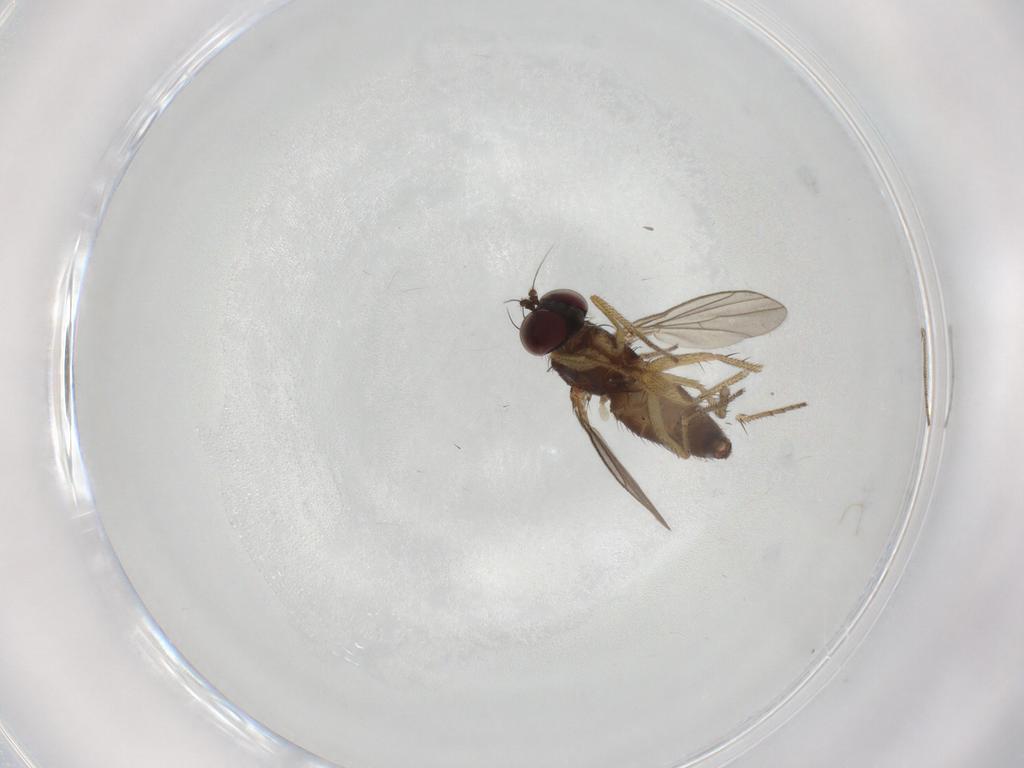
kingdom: Animalia
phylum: Arthropoda
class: Insecta
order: Diptera
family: Dolichopodidae
